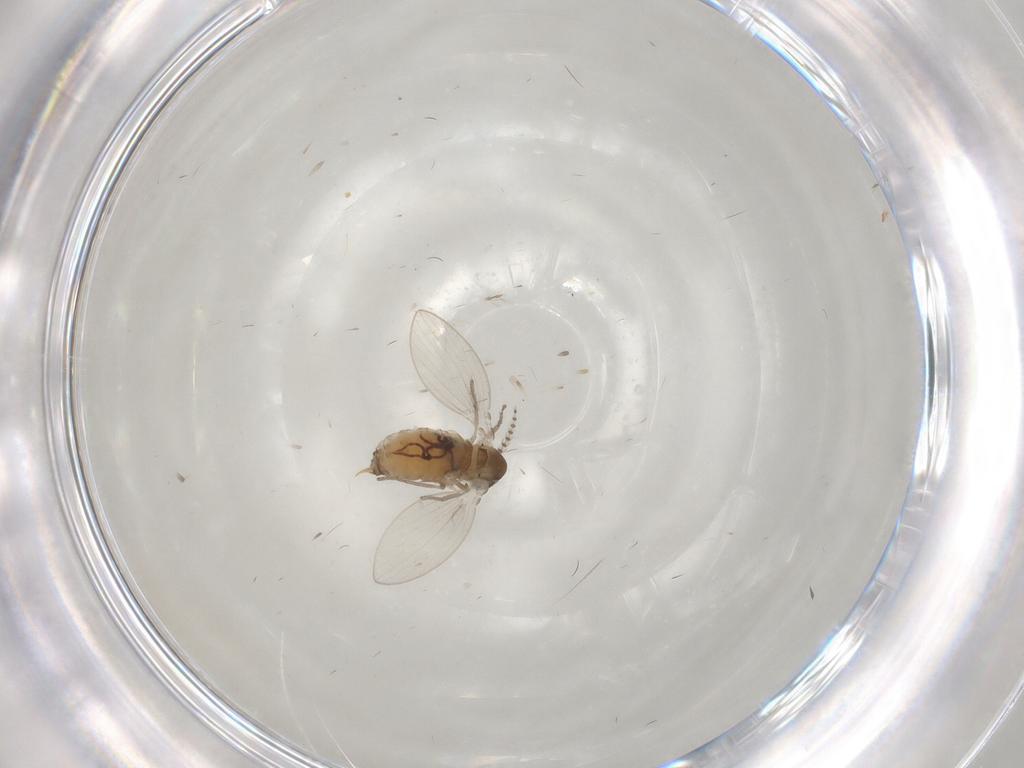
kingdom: Animalia
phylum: Arthropoda
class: Insecta
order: Diptera
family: Psychodidae
